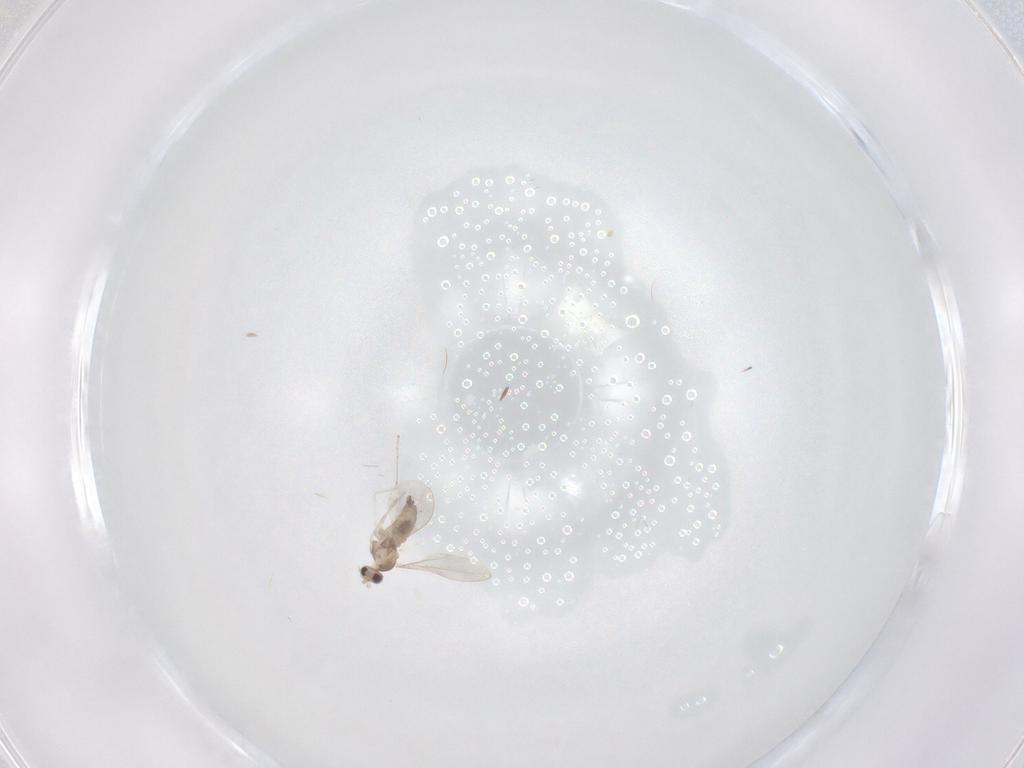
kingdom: Animalia
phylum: Arthropoda
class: Insecta
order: Diptera
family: Cecidomyiidae
